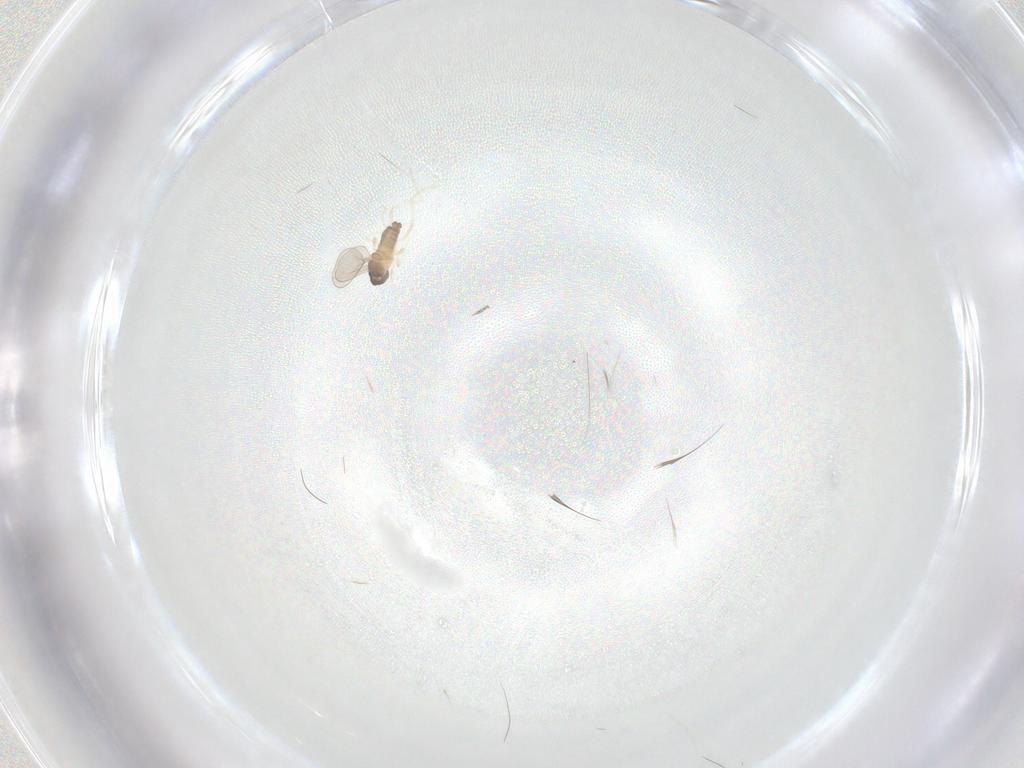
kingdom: Animalia
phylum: Arthropoda
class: Insecta
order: Diptera
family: Cecidomyiidae
